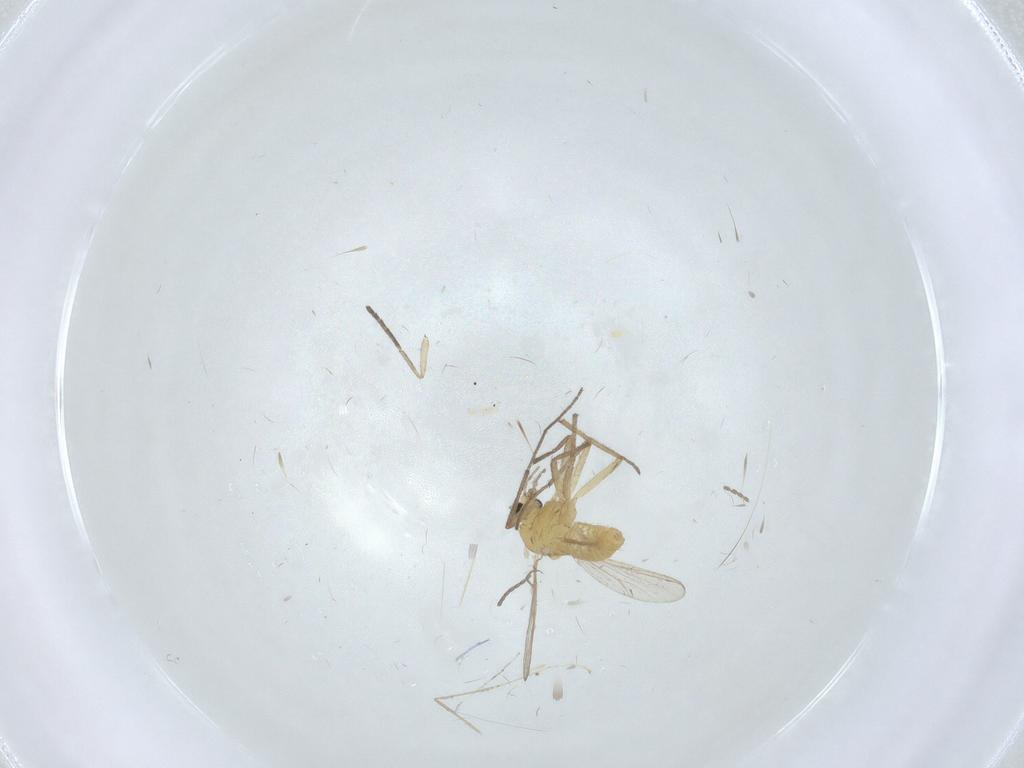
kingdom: Animalia
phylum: Arthropoda
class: Insecta
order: Diptera
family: Chironomidae
